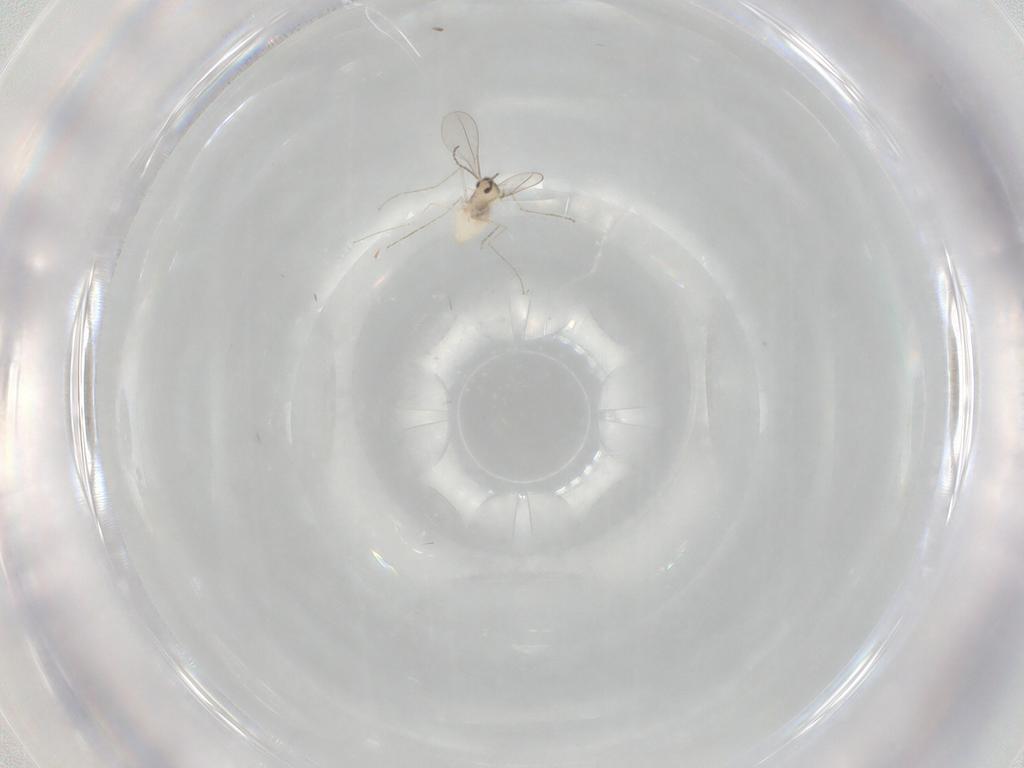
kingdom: Animalia
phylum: Arthropoda
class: Insecta
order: Diptera
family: Cecidomyiidae
